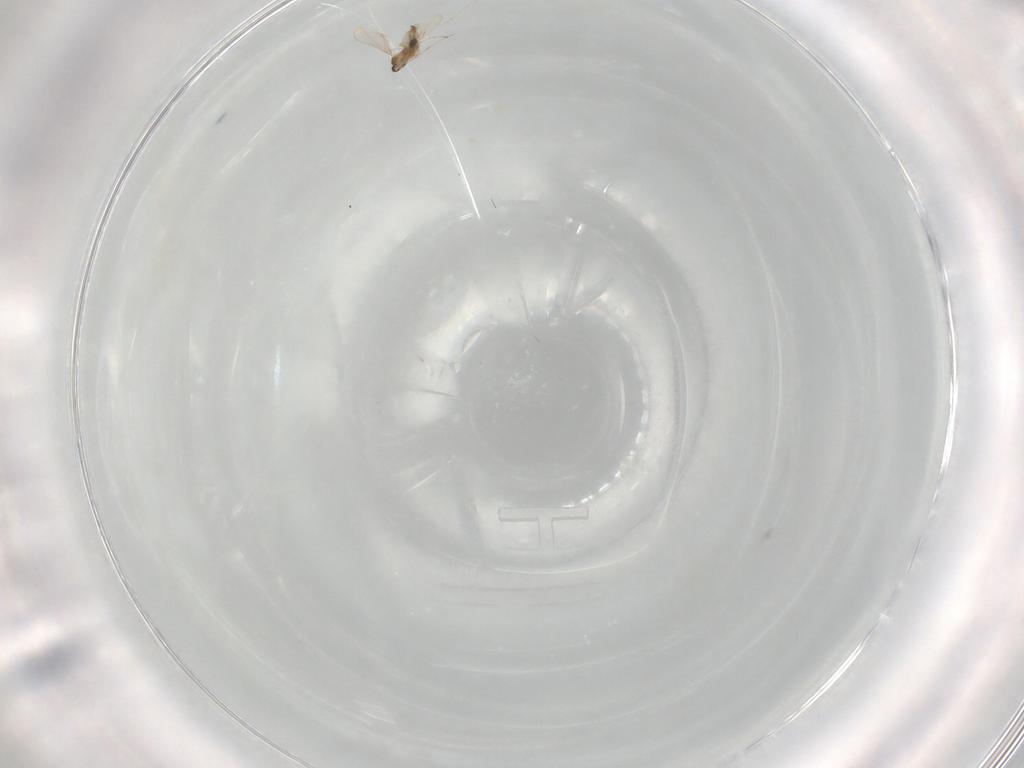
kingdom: Animalia
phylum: Arthropoda
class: Insecta
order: Diptera
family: Cecidomyiidae
